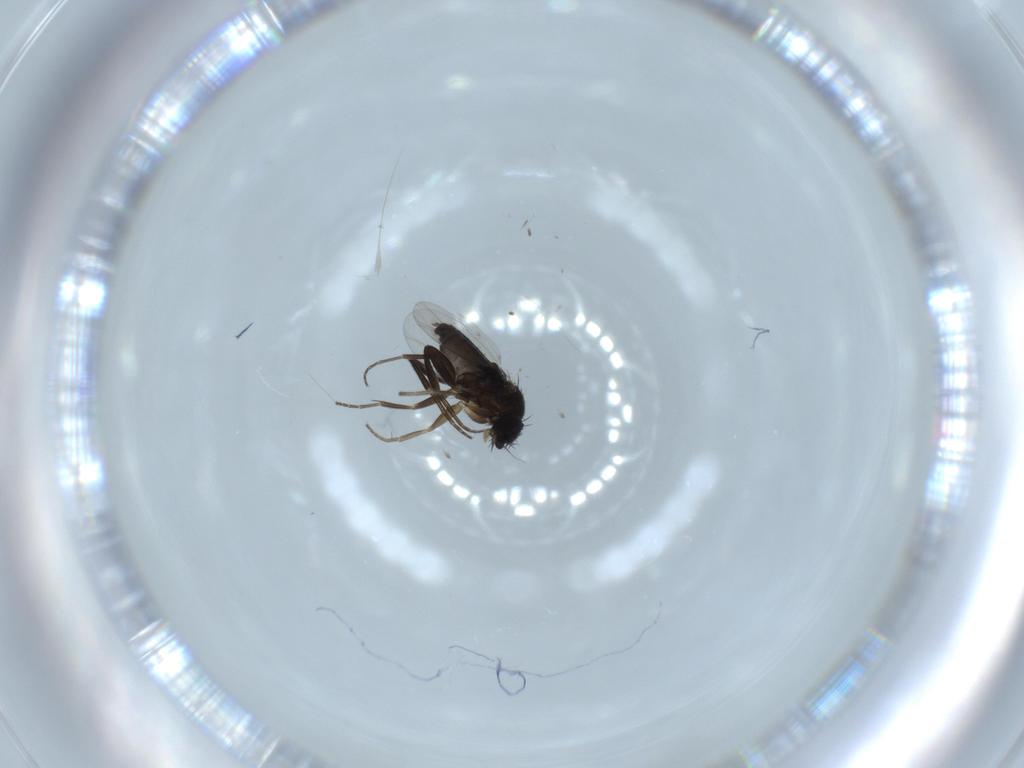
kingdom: Animalia
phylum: Arthropoda
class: Insecta
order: Diptera
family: Phoridae
